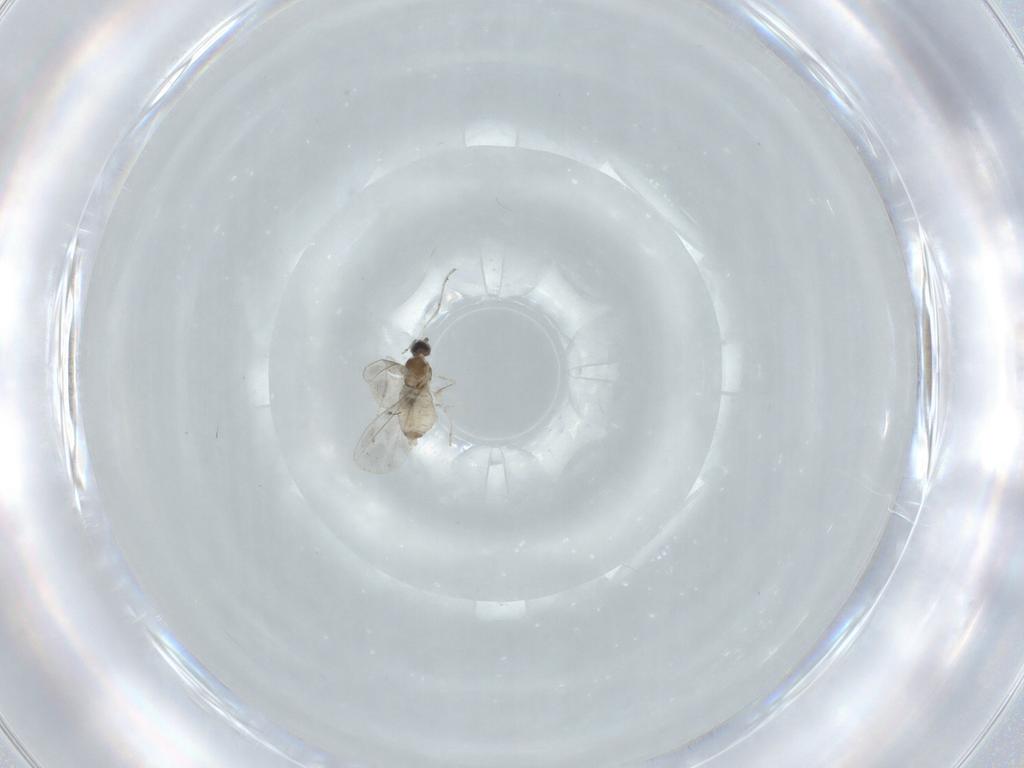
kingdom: Animalia
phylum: Arthropoda
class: Insecta
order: Diptera
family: Cecidomyiidae
